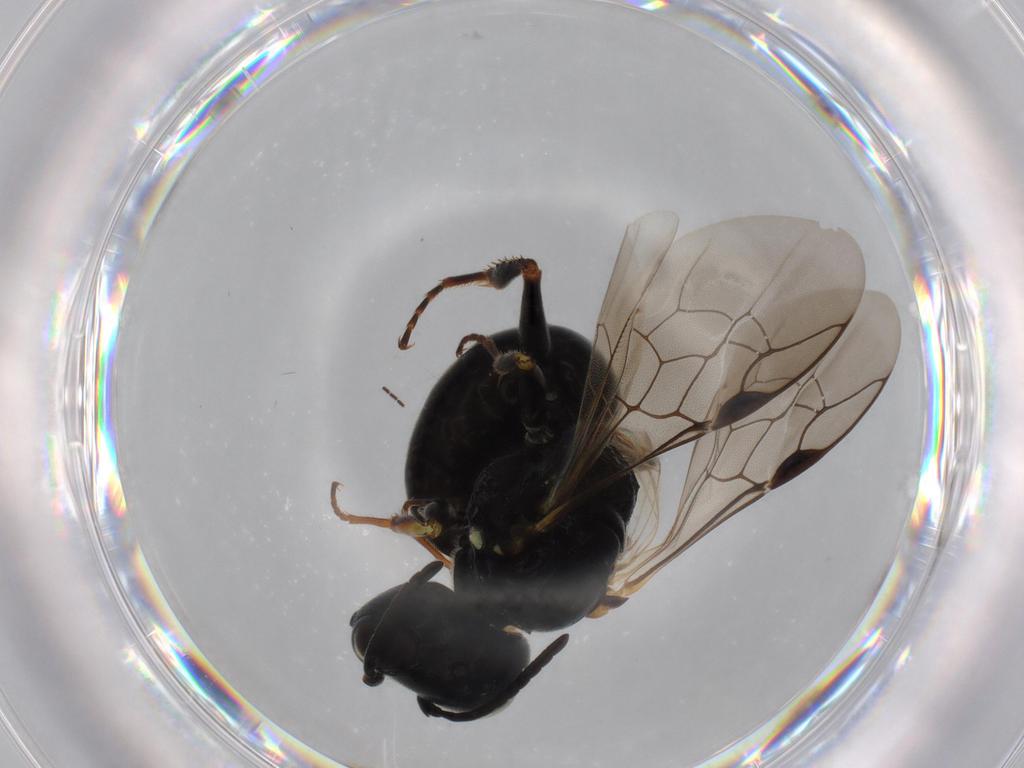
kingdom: Animalia
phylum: Arthropoda
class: Insecta
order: Hymenoptera
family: Crabronidae
